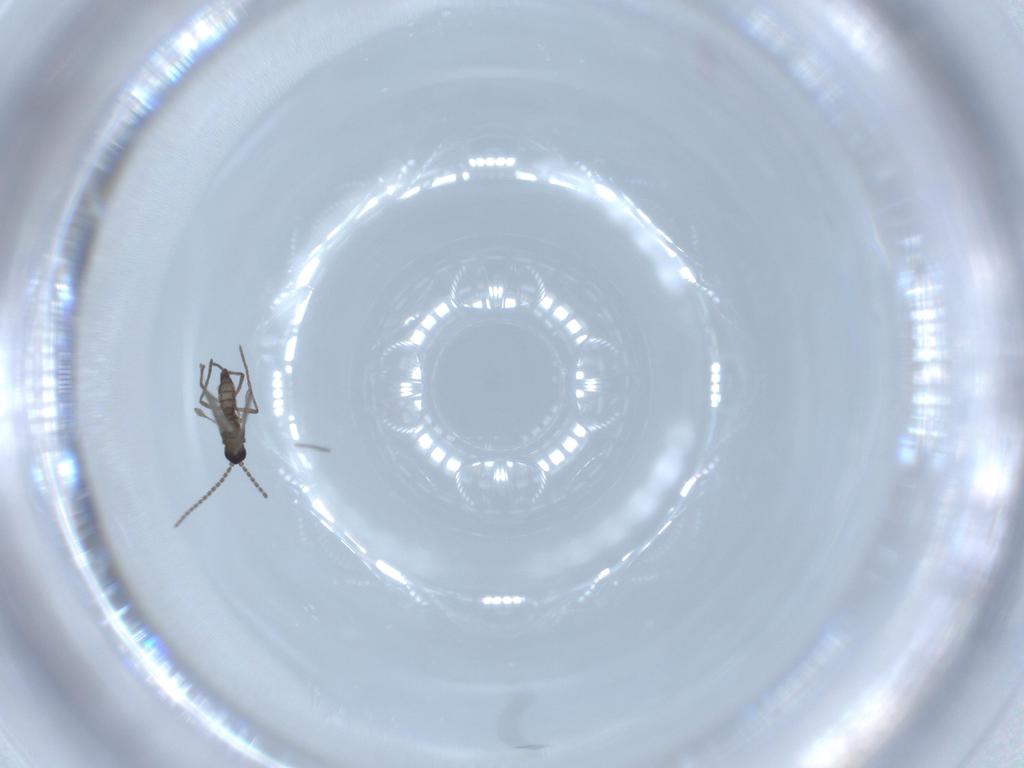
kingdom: Animalia
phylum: Arthropoda
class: Insecta
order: Diptera
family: Sciaridae
